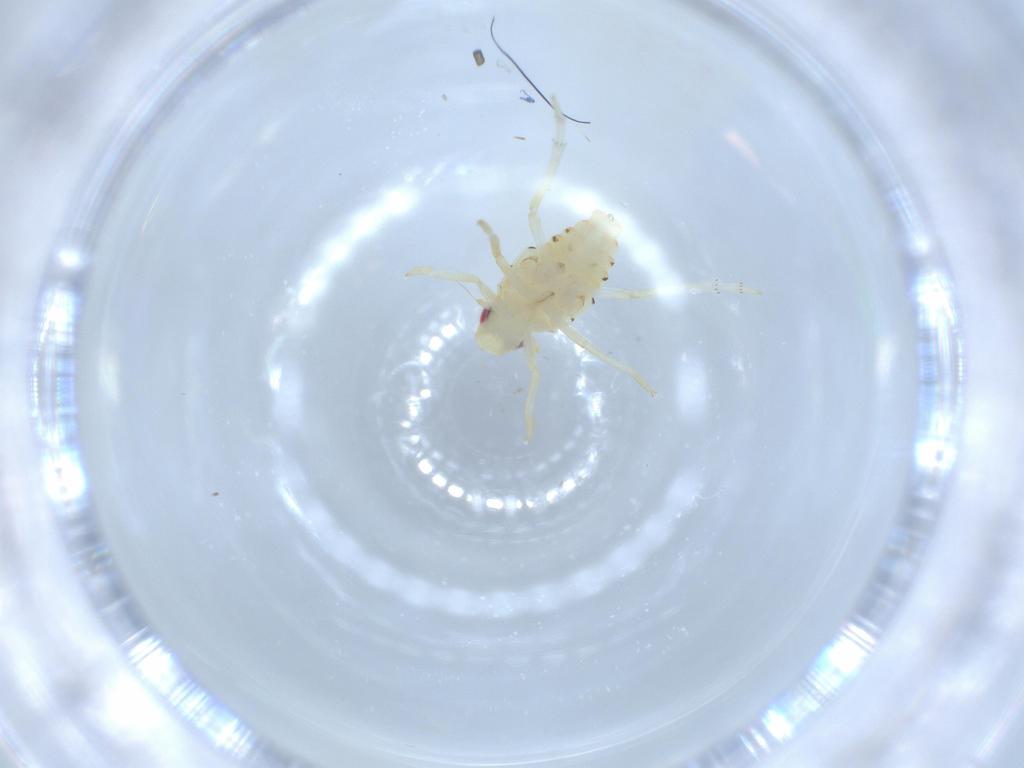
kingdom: Animalia
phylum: Arthropoda
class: Insecta
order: Hemiptera
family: Tropiduchidae
